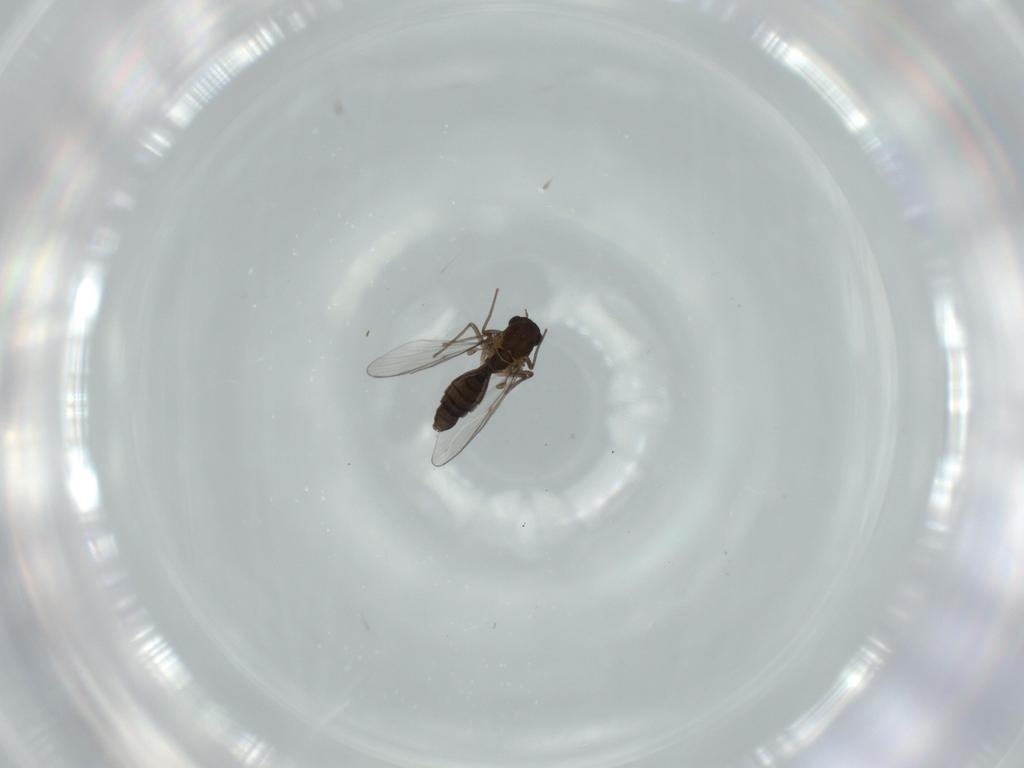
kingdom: Animalia
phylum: Arthropoda
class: Insecta
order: Diptera
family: Chironomidae
